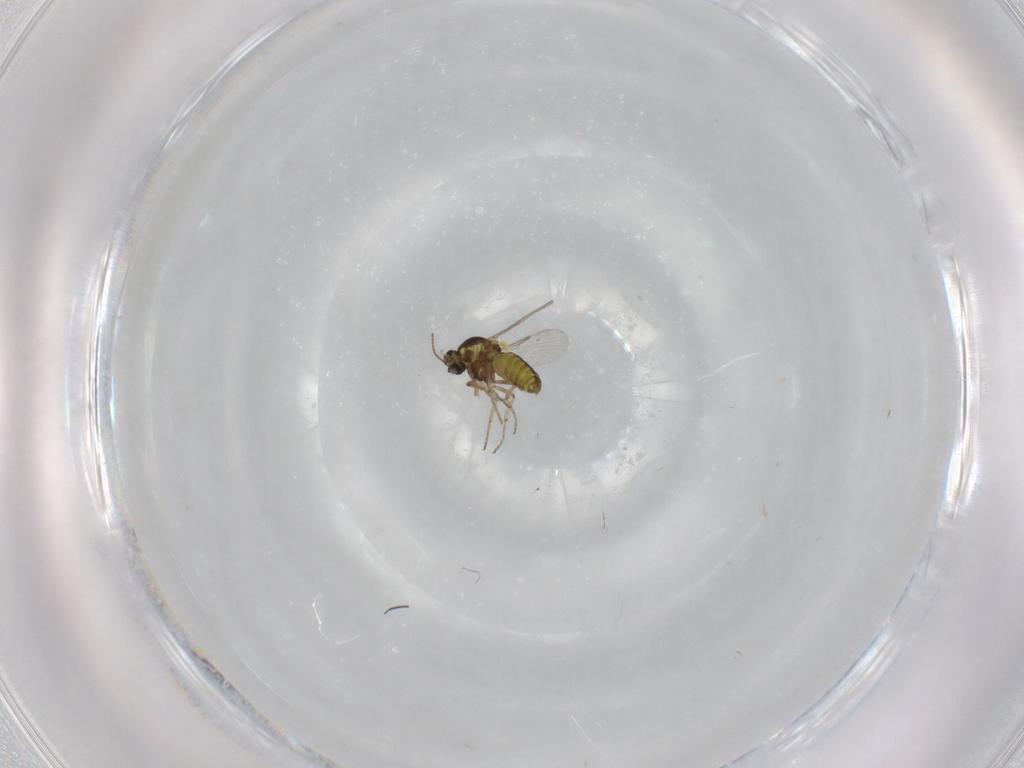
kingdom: Animalia
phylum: Arthropoda
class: Insecta
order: Diptera
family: Ceratopogonidae
